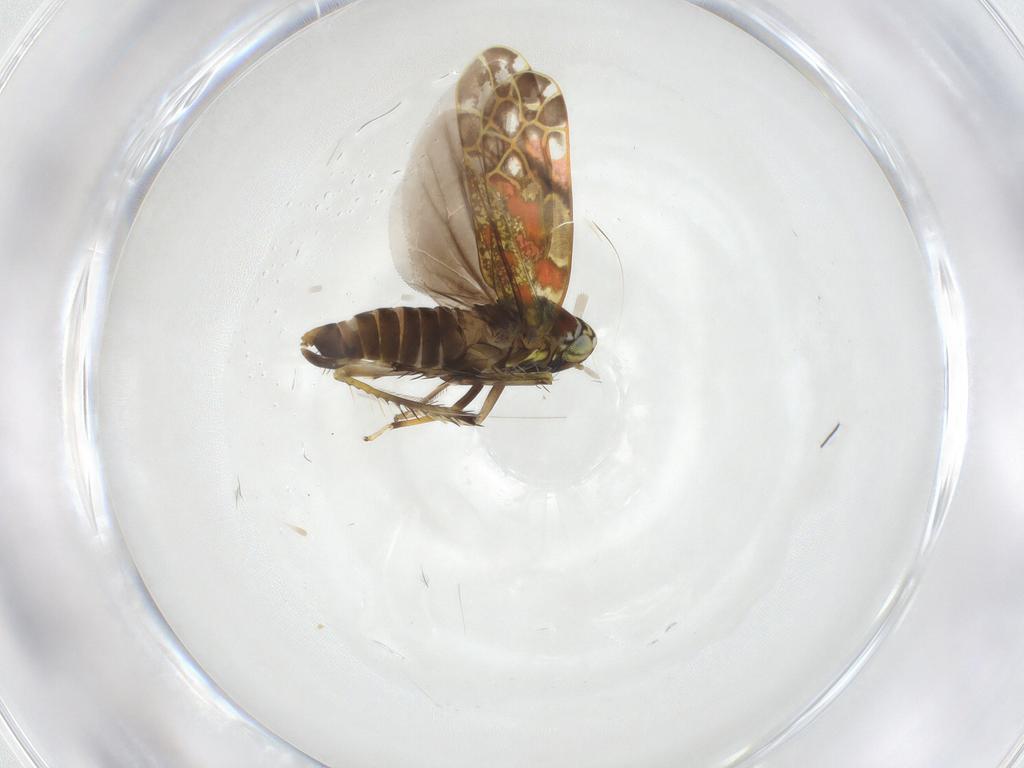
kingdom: Animalia
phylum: Arthropoda
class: Insecta
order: Hemiptera
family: Cicadellidae
